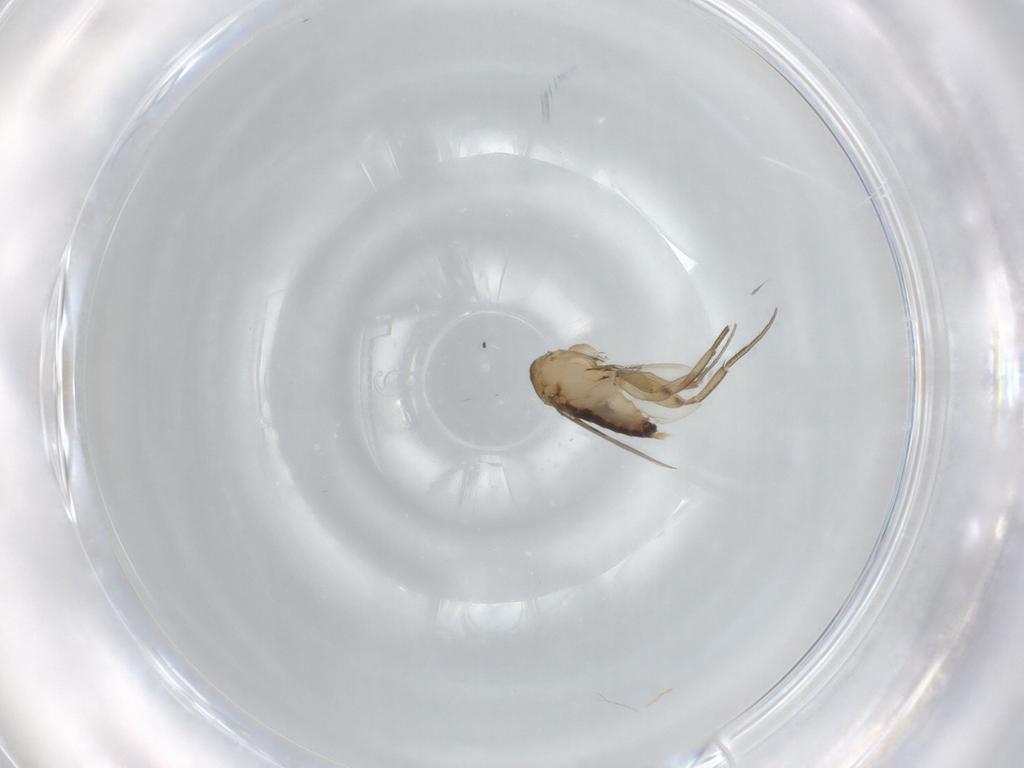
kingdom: Animalia
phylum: Arthropoda
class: Insecta
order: Diptera
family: Phoridae
